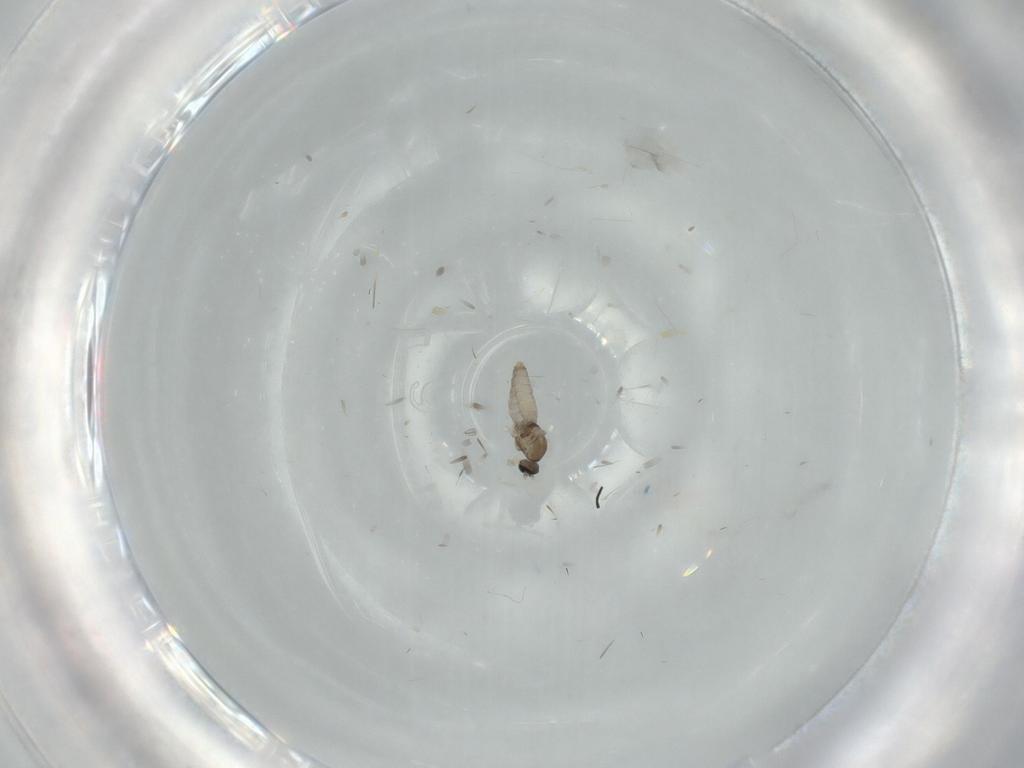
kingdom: Animalia
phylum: Arthropoda
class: Insecta
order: Diptera
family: Cecidomyiidae
